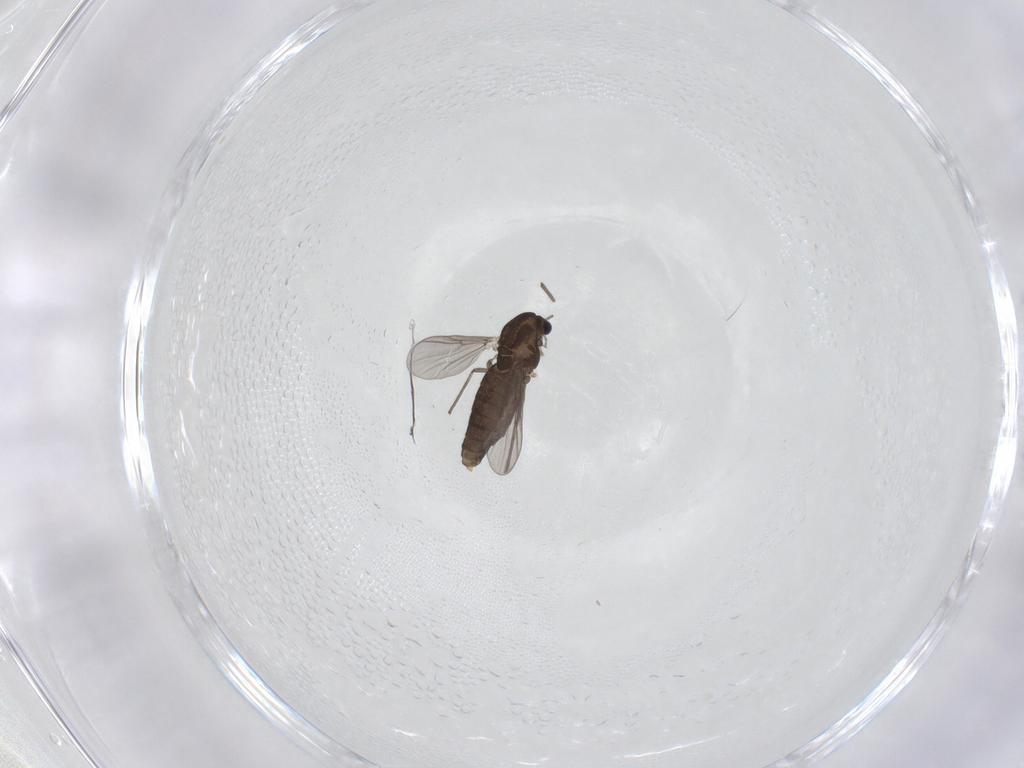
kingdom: Animalia
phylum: Arthropoda
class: Insecta
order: Diptera
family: Chironomidae
